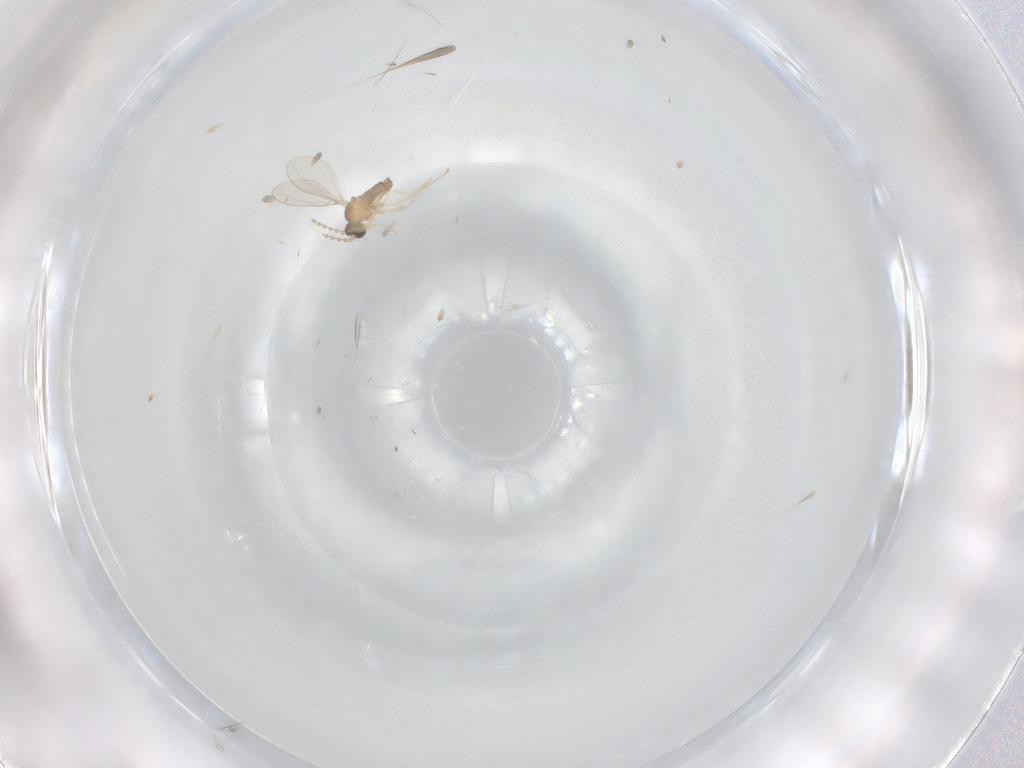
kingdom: Animalia
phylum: Arthropoda
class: Insecta
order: Diptera
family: Cecidomyiidae
